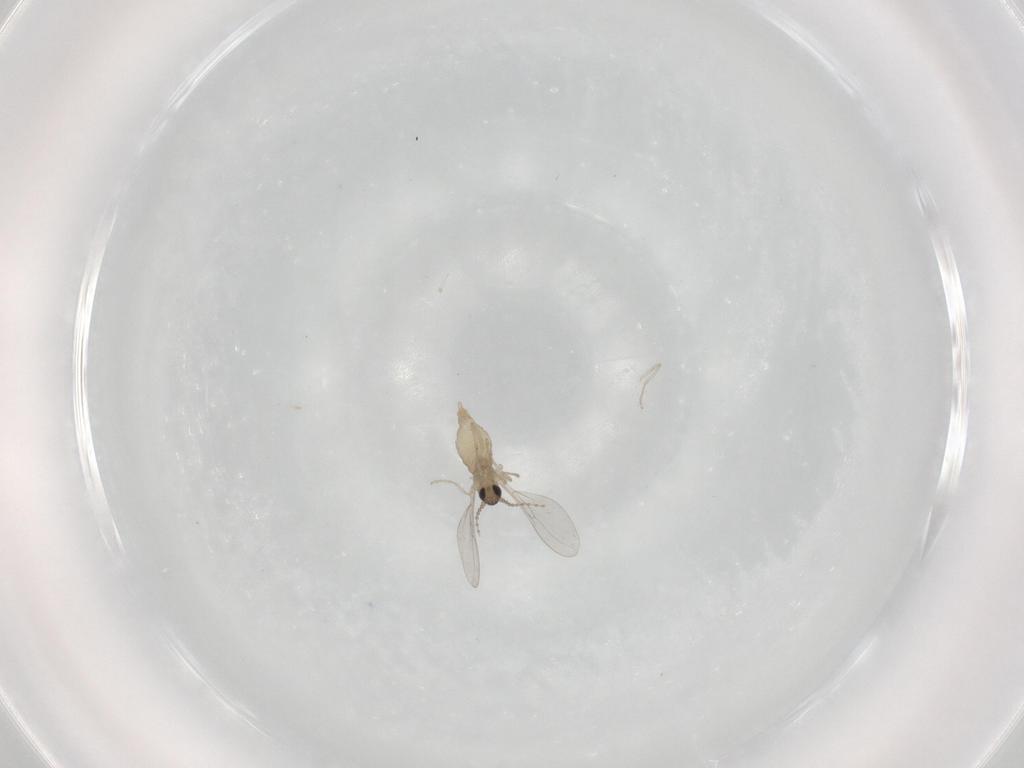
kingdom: Animalia
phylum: Arthropoda
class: Insecta
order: Diptera
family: Cecidomyiidae
